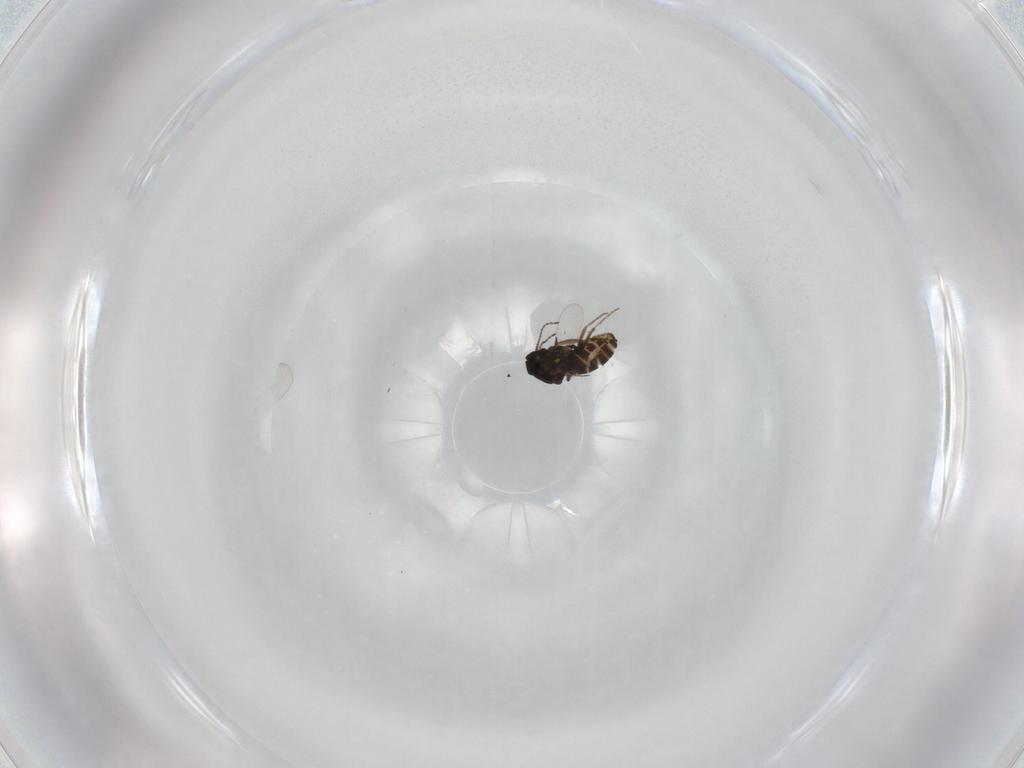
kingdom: Animalia
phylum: Arthropoda
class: Insecta
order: Diptera
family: Ceratopogonidae
